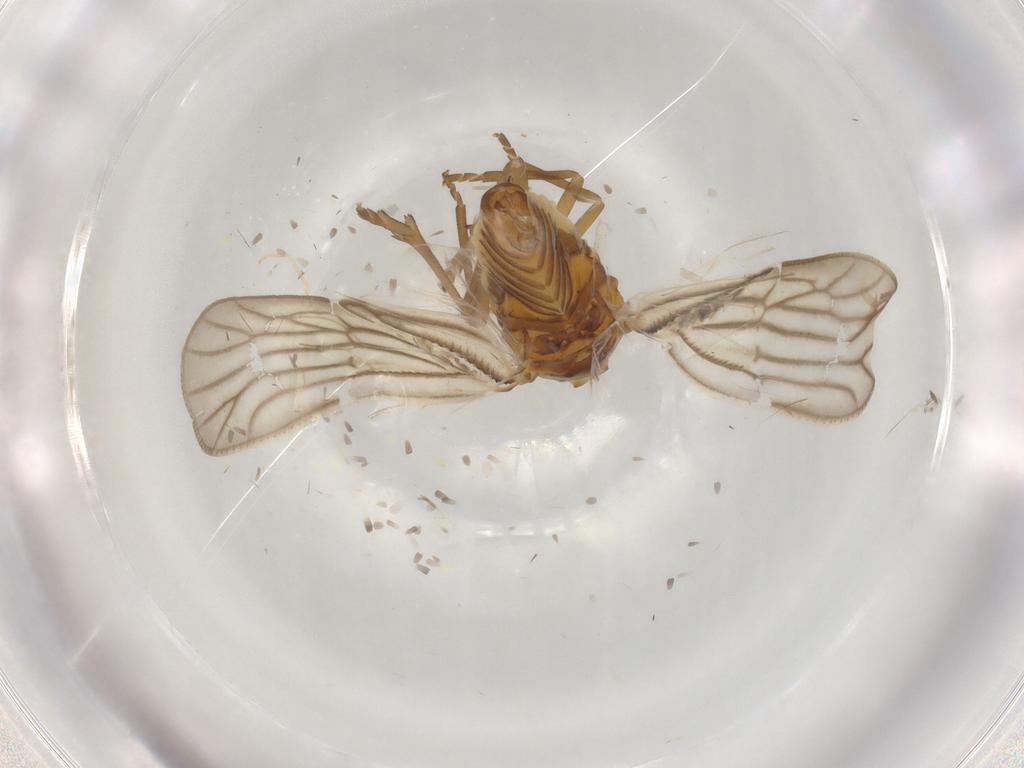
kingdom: Animalia
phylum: Arthropoda
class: Insecta
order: Hemiptera
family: Meenoplidae
